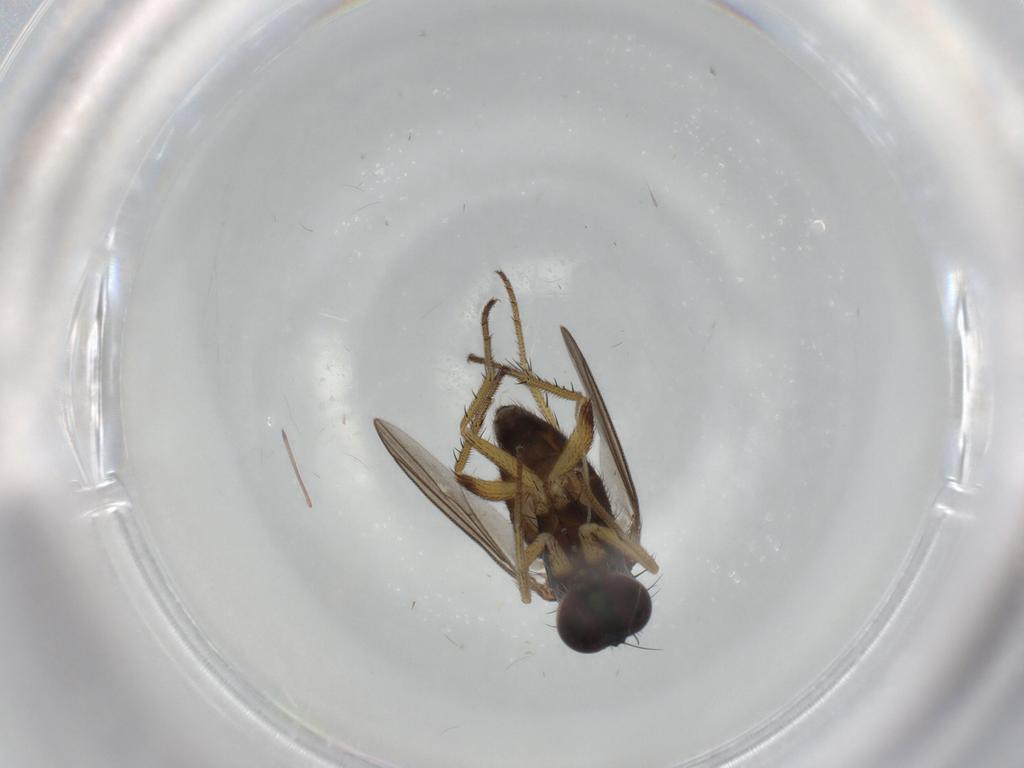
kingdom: Animalia
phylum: Arthropoda
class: Insecta
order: Diptera
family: Dolichopodidae
